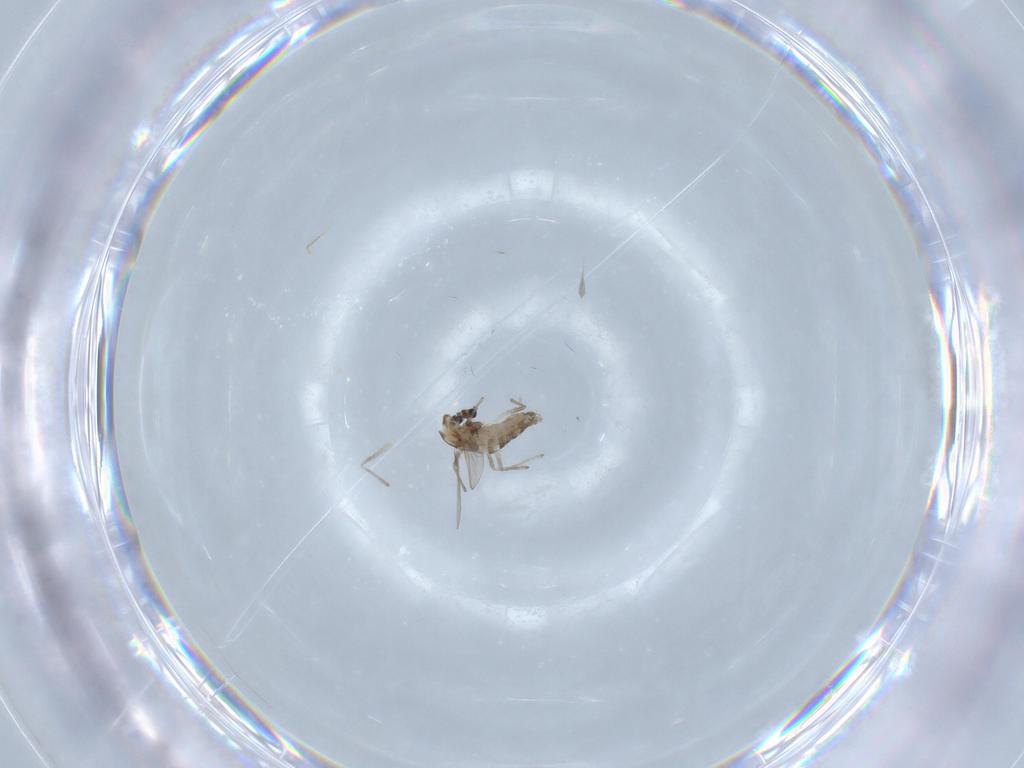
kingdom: Animalia
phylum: Arthropoda
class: Insecta
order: Diptera
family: Chironomidae
